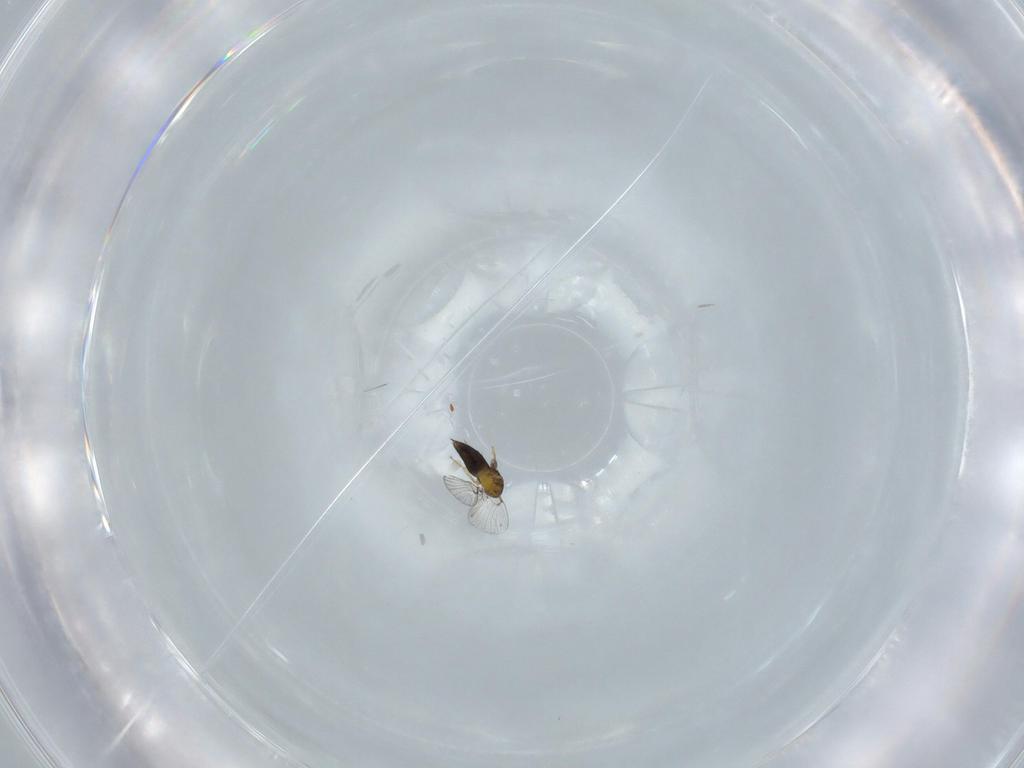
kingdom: Animalia
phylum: Arthropoda
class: Insecta
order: Hymenoptera
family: Trichogrammatidae
